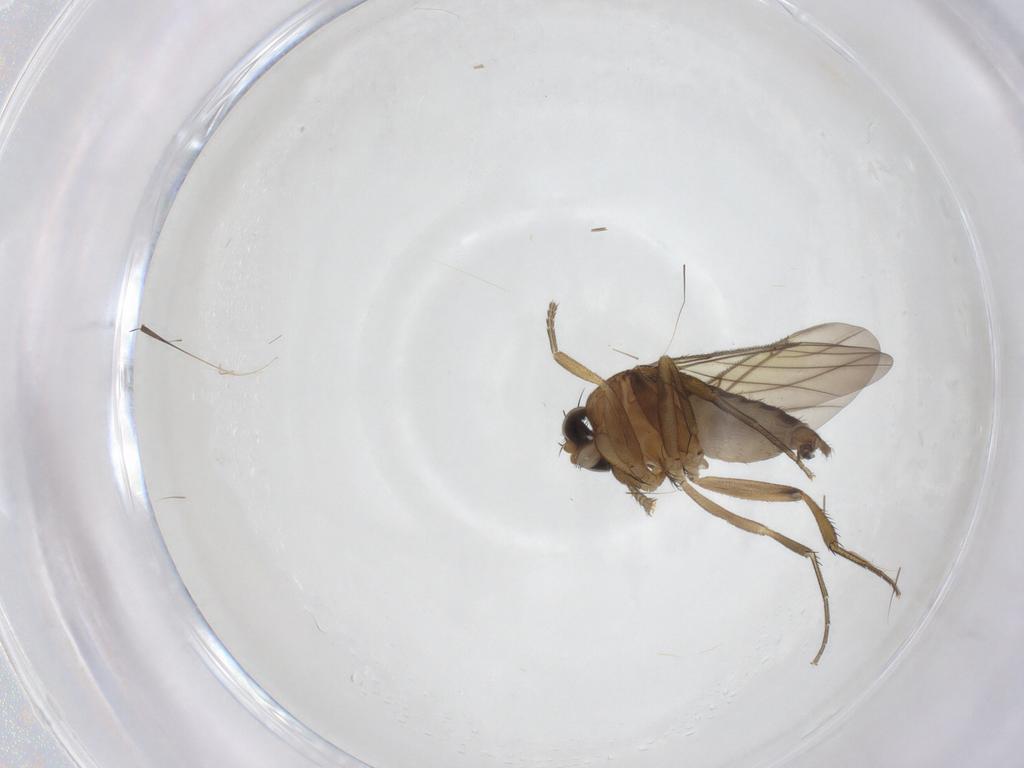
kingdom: Animalia
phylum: Arthropoda
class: Insecta
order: Diptera
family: Phoridae
